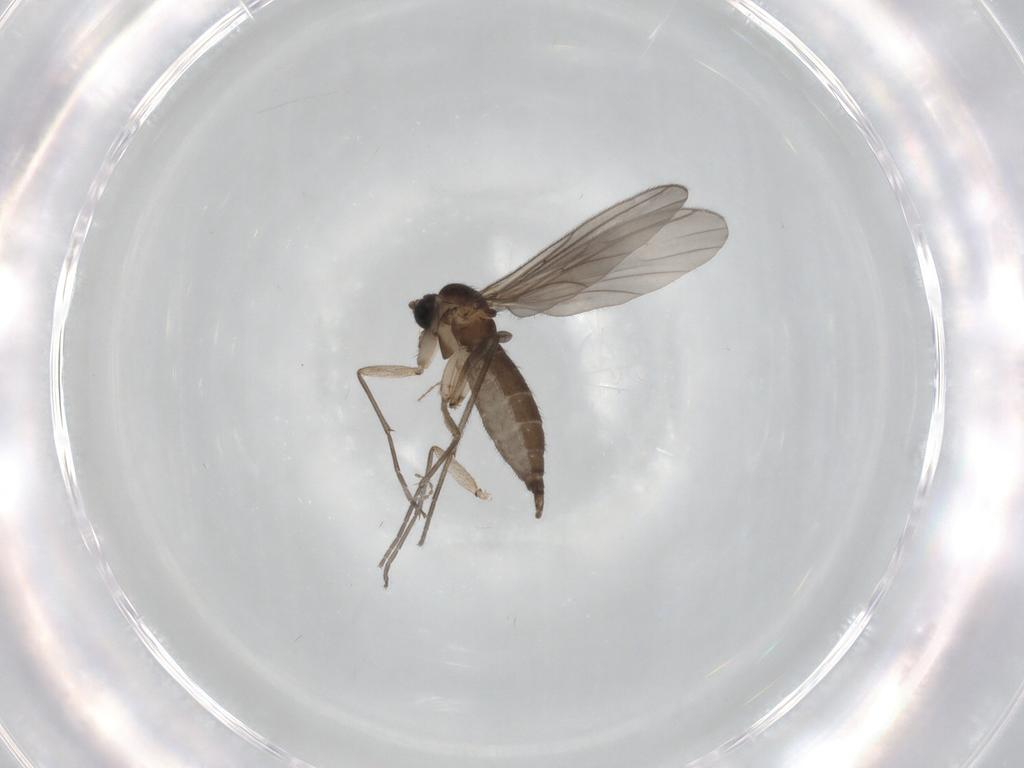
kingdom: Animalia
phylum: Arthropoda
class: Insecta
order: Diptera
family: Sciaridae
